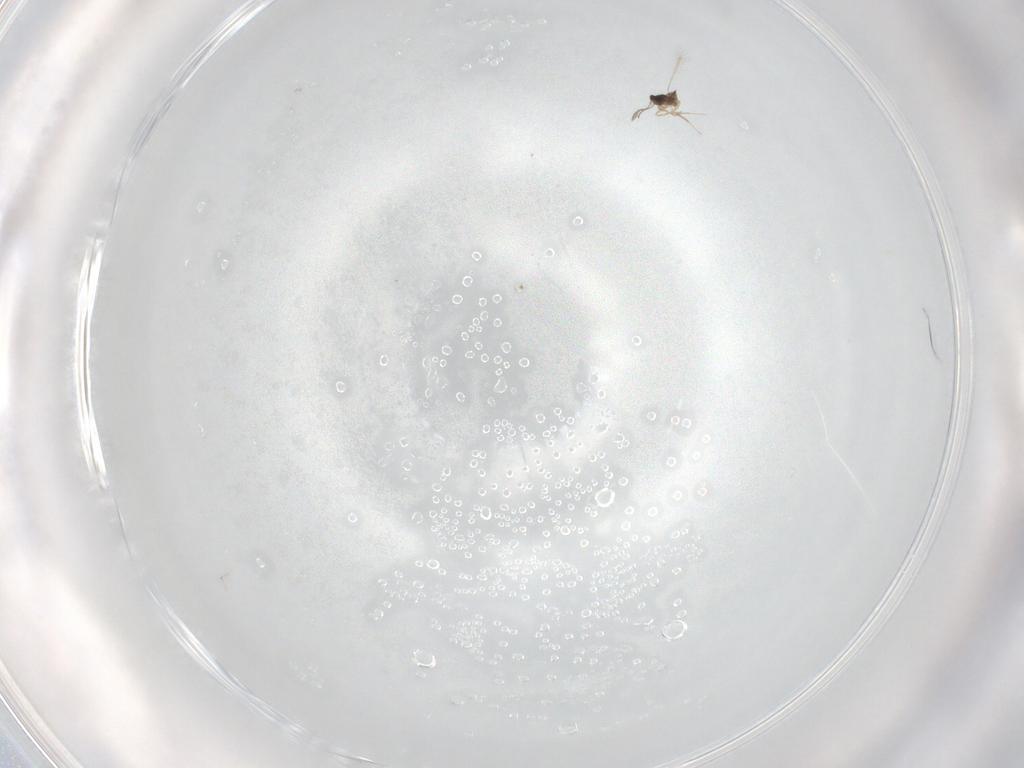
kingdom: Animalia
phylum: Arthropoda
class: Insecta
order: Hymenoptera
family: Mymaridae
